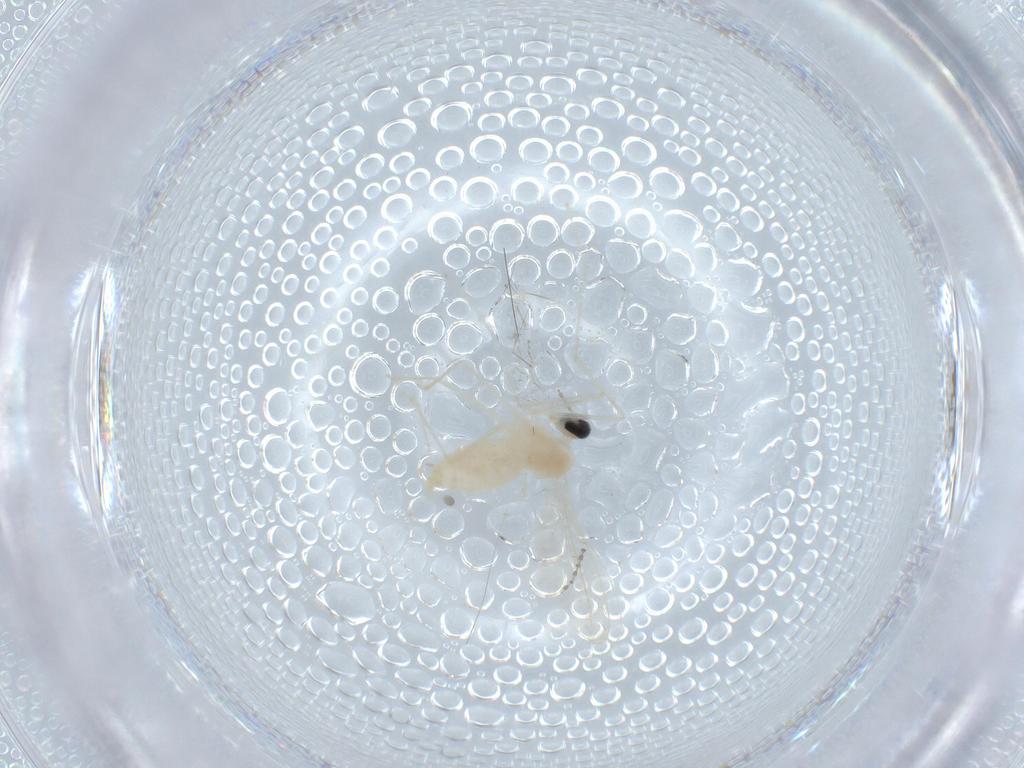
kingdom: Animalia
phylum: Arthropoda
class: Insecta
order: Diptera
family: Cecidomyiidae
